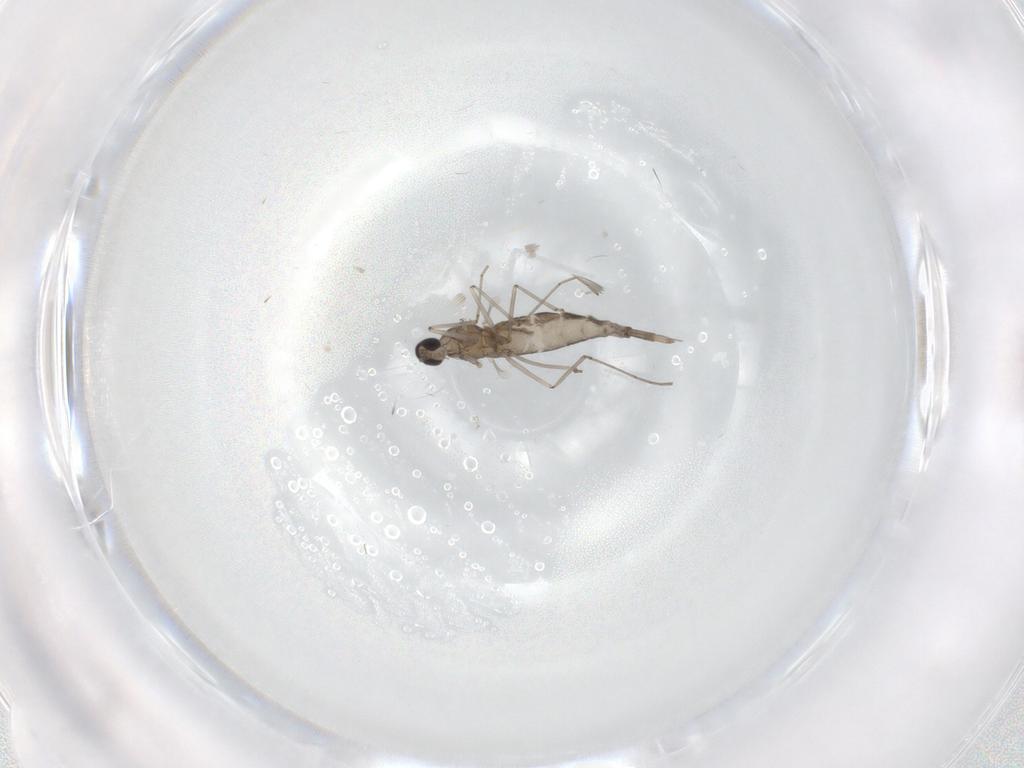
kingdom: Animalia
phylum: Arthropoda
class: Insecta
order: Diptera
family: Cecidomyiidae
